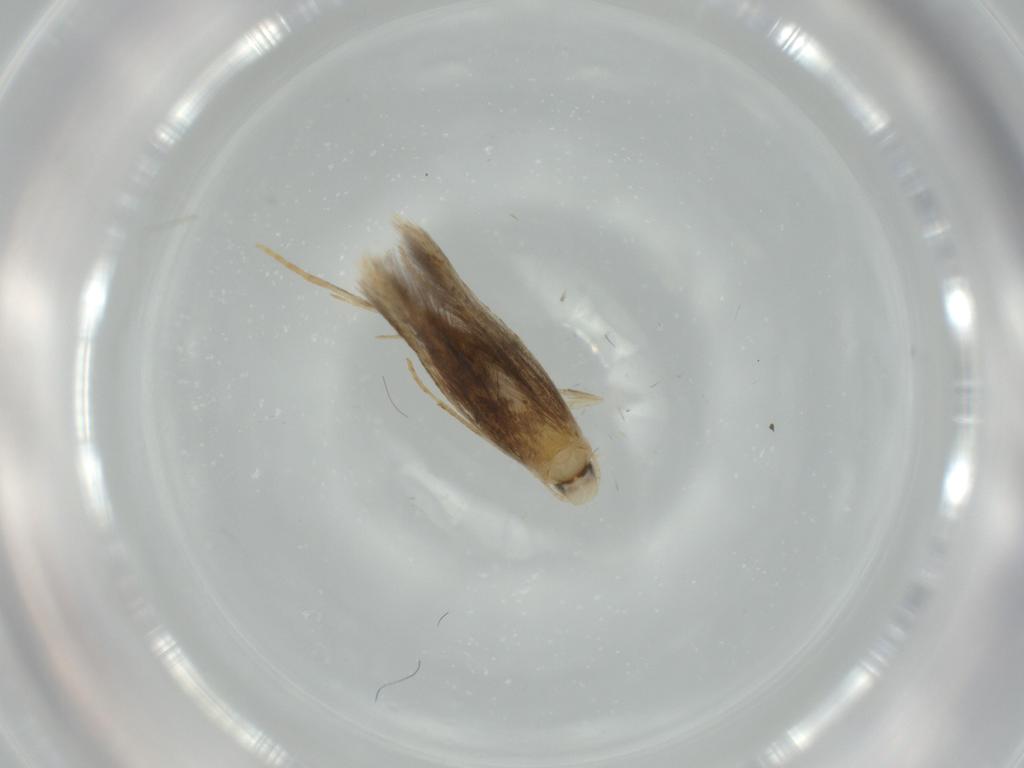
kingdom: Animalia
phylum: Arthropoda
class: Insecta
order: Lepidoptera
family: Tischeriidae
